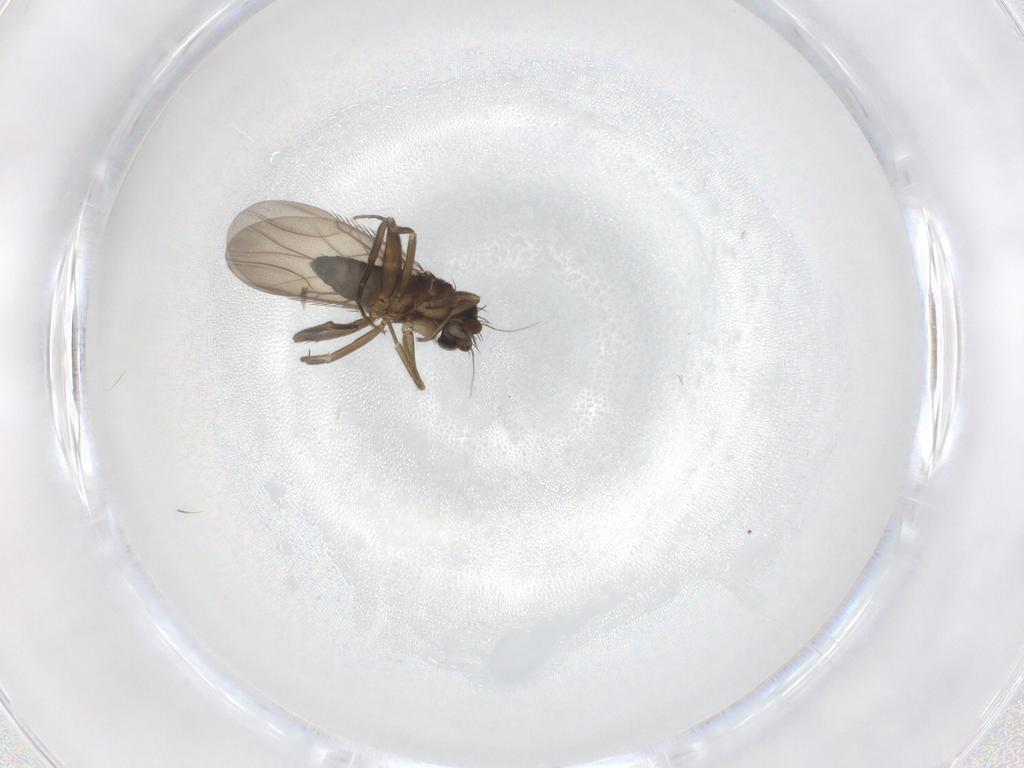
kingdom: Animalia
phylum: Arthropoda
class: Insecta
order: Diptera
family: Phoridae
